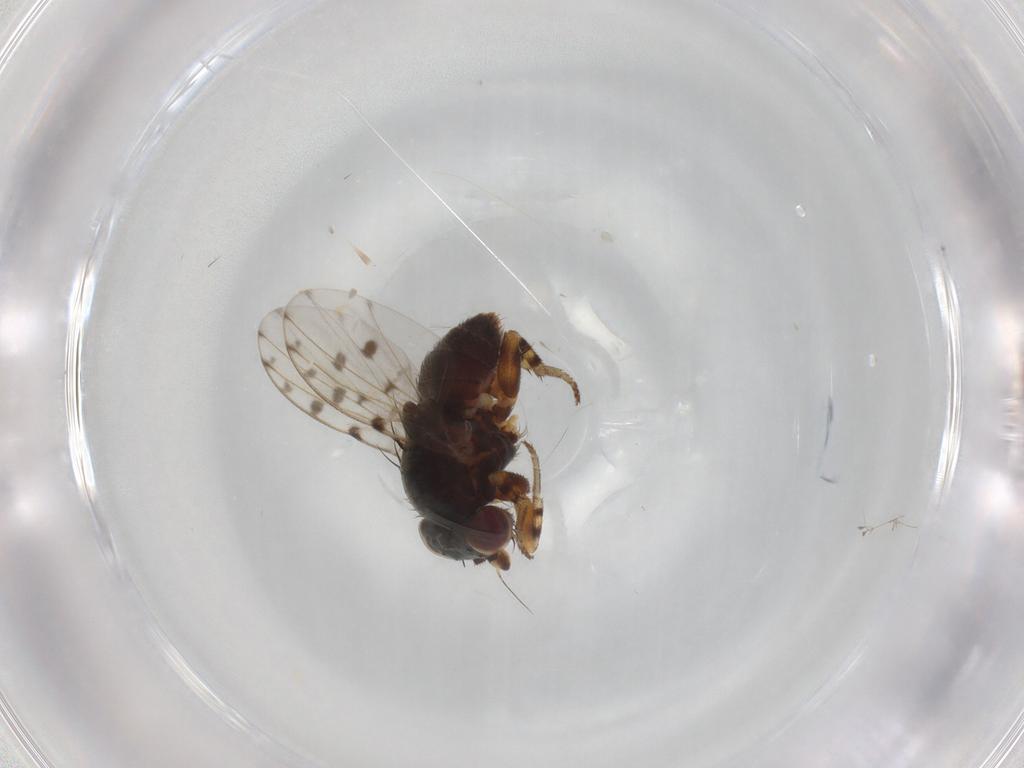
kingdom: Animalia
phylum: Arthropoda
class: Insecta
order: Diptera
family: Odiniidae
